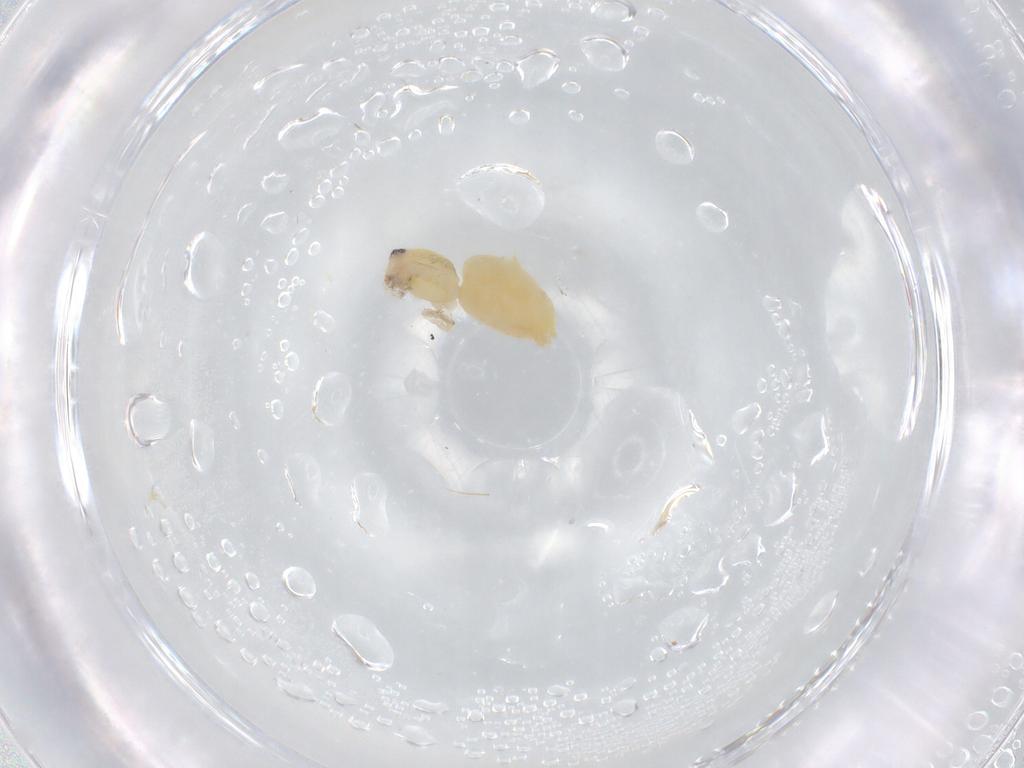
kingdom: Animalia
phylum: Arthropoda
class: Arachnida
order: Araneae
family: Anyphaenidae
